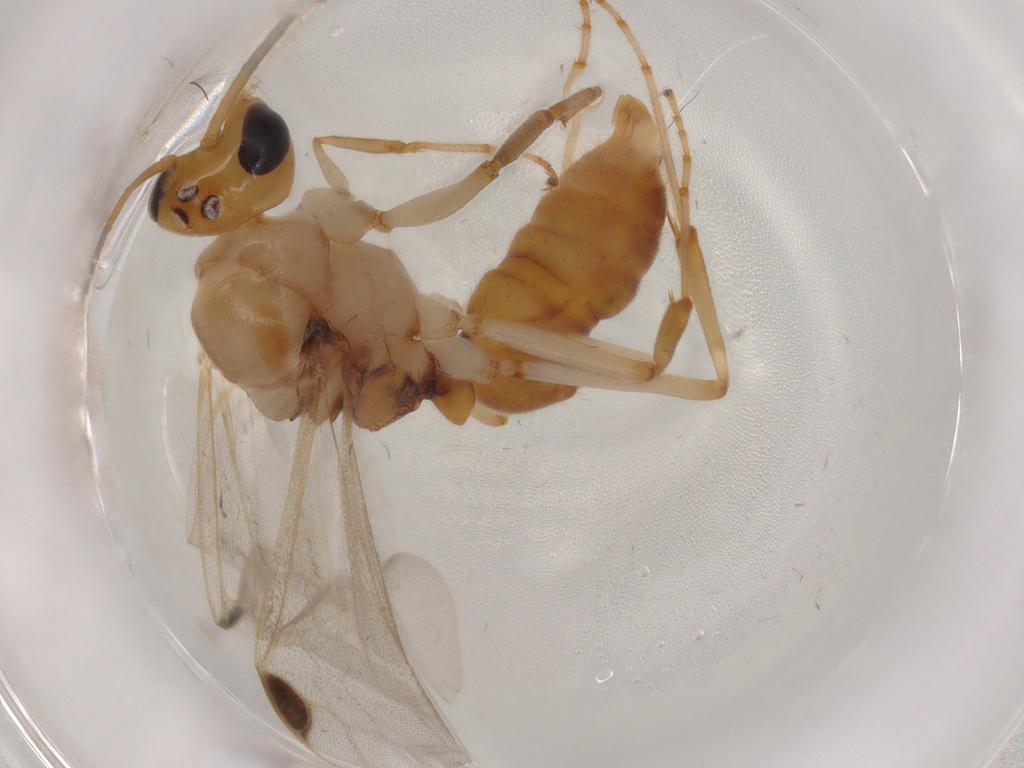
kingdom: Animalia
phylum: Arthropoda
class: Insecta
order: Hymenoptera
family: Formicidae
